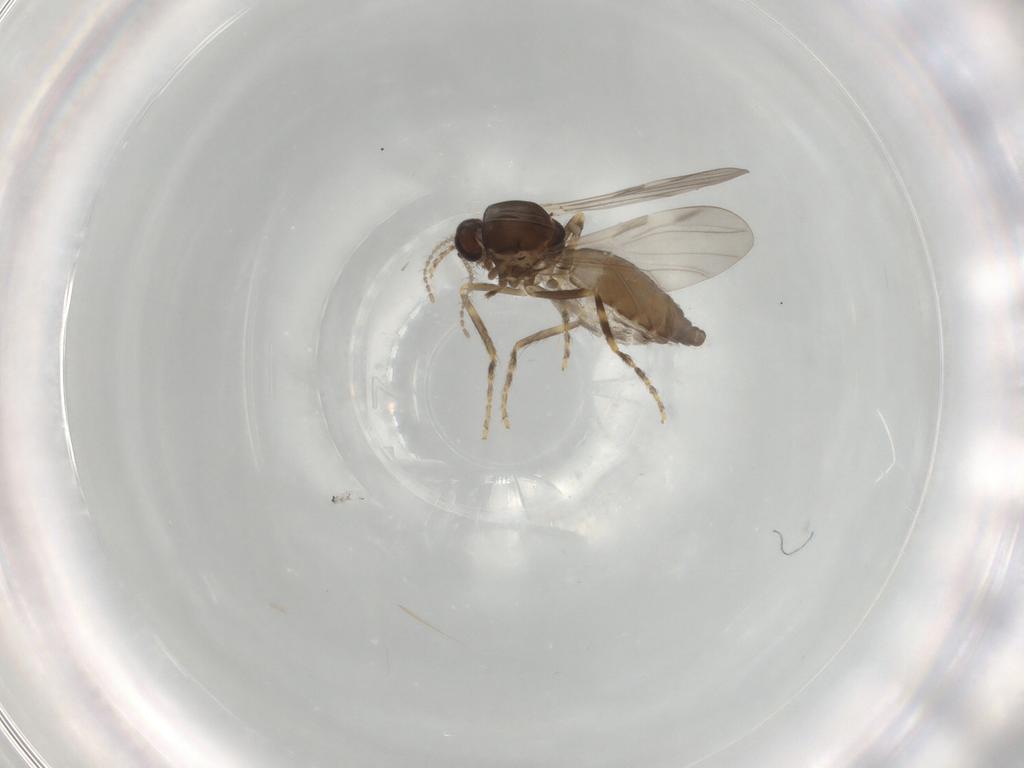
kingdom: Animalia
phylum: Arthropoda
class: Insecta
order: Diptera
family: Ceratopogonidae
